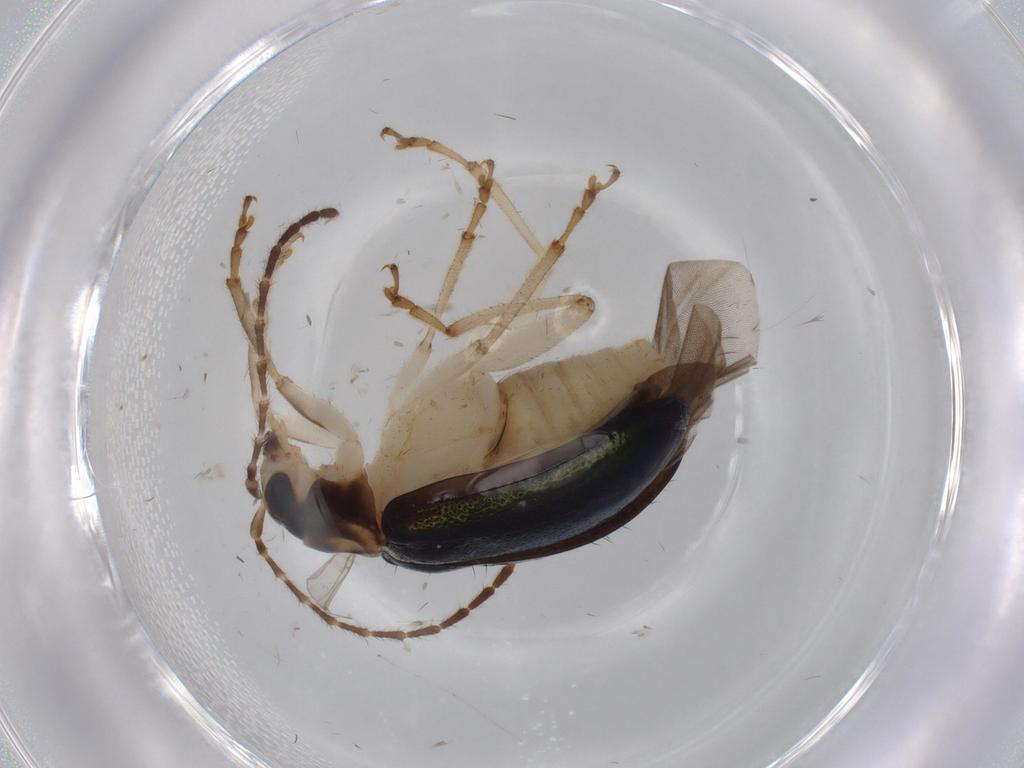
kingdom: Animalia
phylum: Arthropoda
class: Insecta
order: Coleoptera
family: Chrysomelidae
